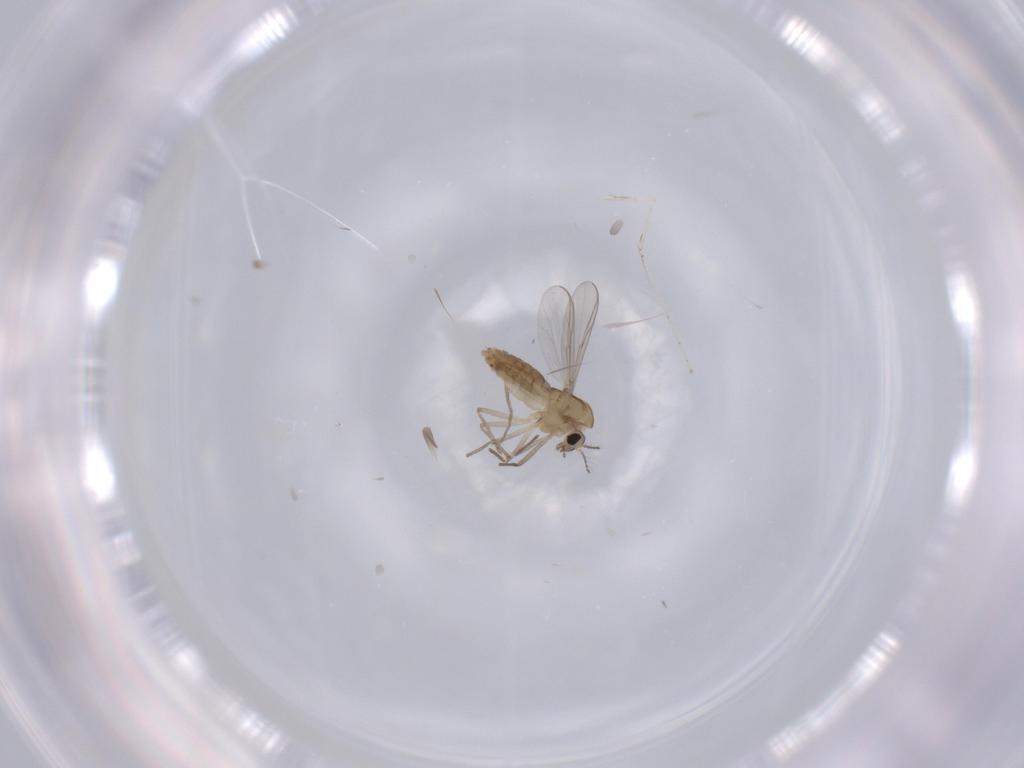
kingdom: Animalia
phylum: Arthropoda
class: Insecta
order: Diptera
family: Chironomidae
